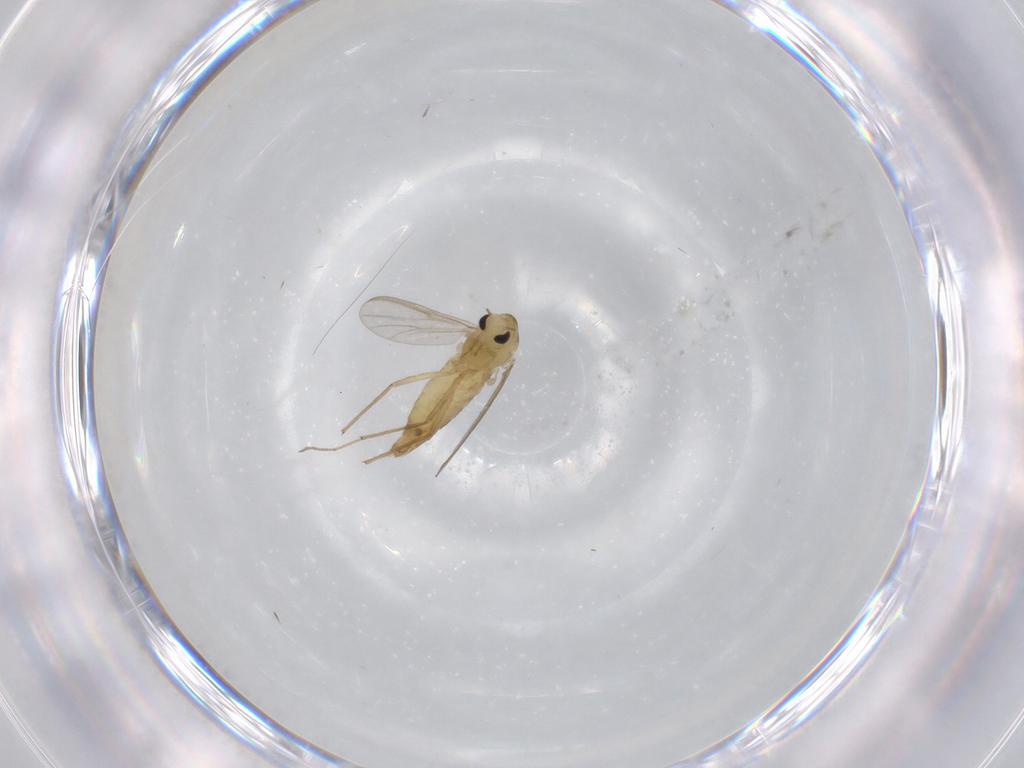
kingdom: Animalia
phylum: Arthropoda
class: Insecta
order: Diptera
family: Chironomidae
